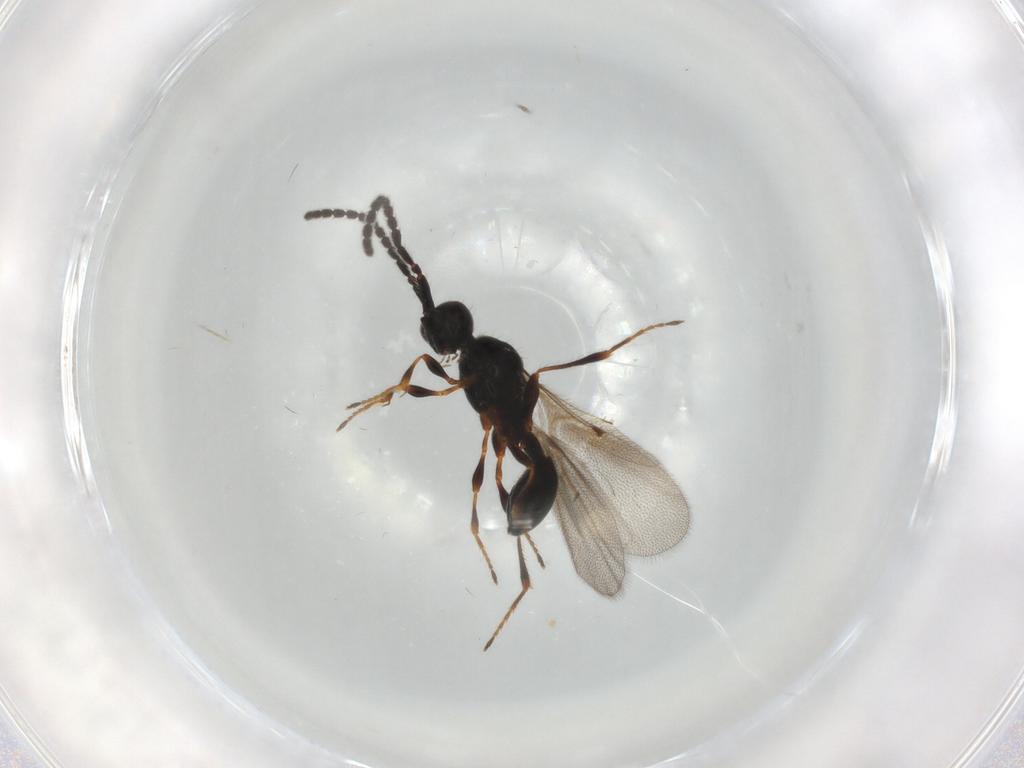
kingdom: Animalia
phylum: Arthropoda
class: Insecta
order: Hymenoptera
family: Diapriidae
